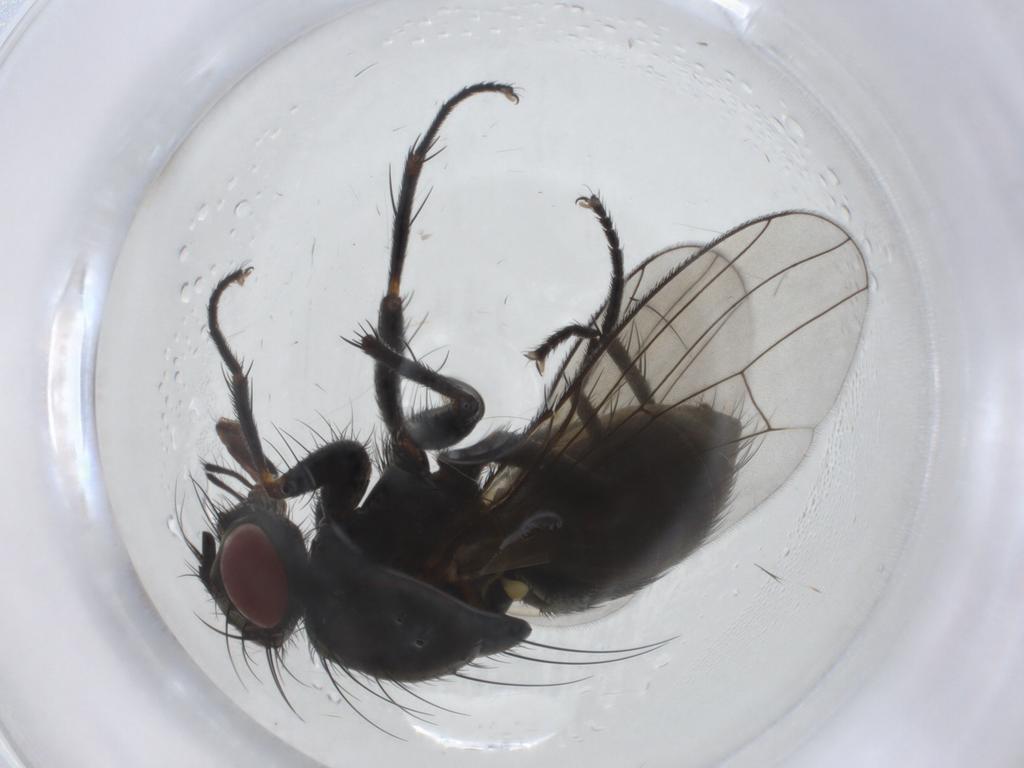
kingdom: Animalia
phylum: Arthropoda
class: Insecta
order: Diptera
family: Muscidae
